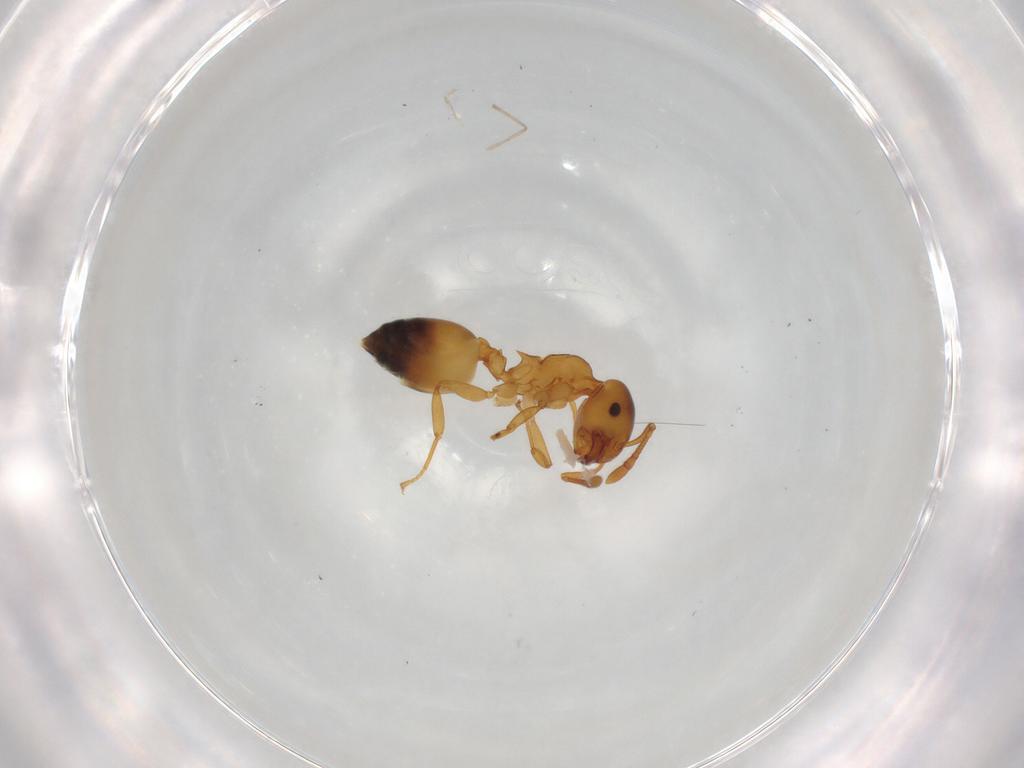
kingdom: Animalia
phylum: Arthropoda
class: Insecta
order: Hymenoptera
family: Formicidae
